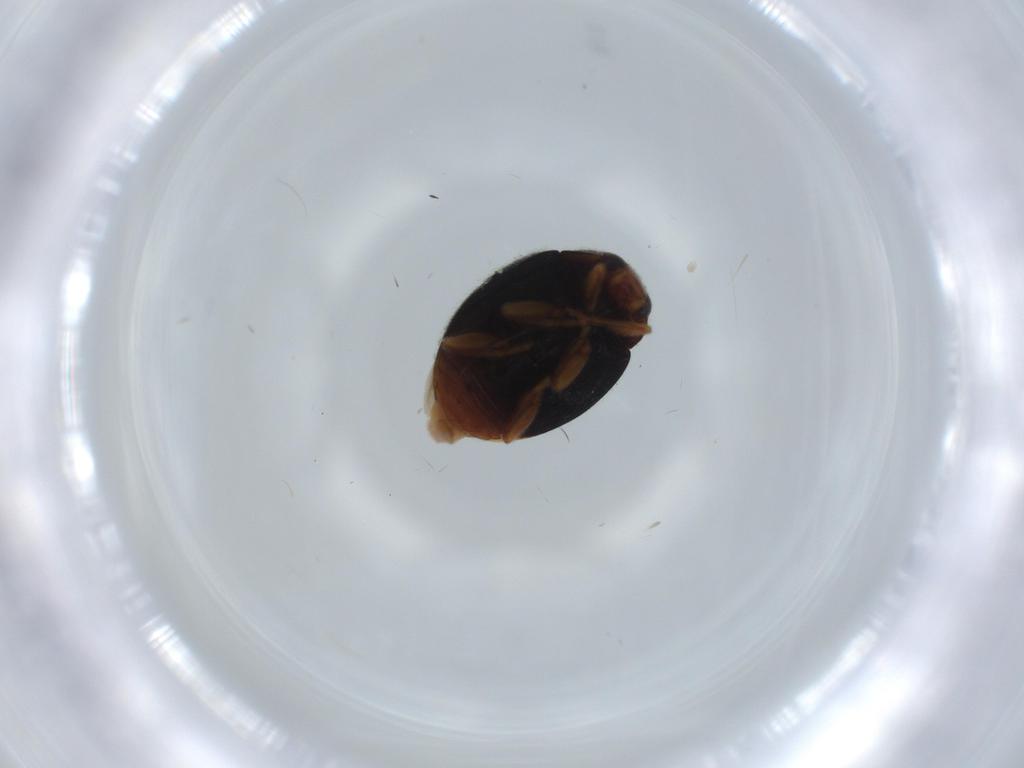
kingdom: Animalia
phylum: Arthropoda
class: Insecta
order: Coleoptera
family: Coccinellidae
